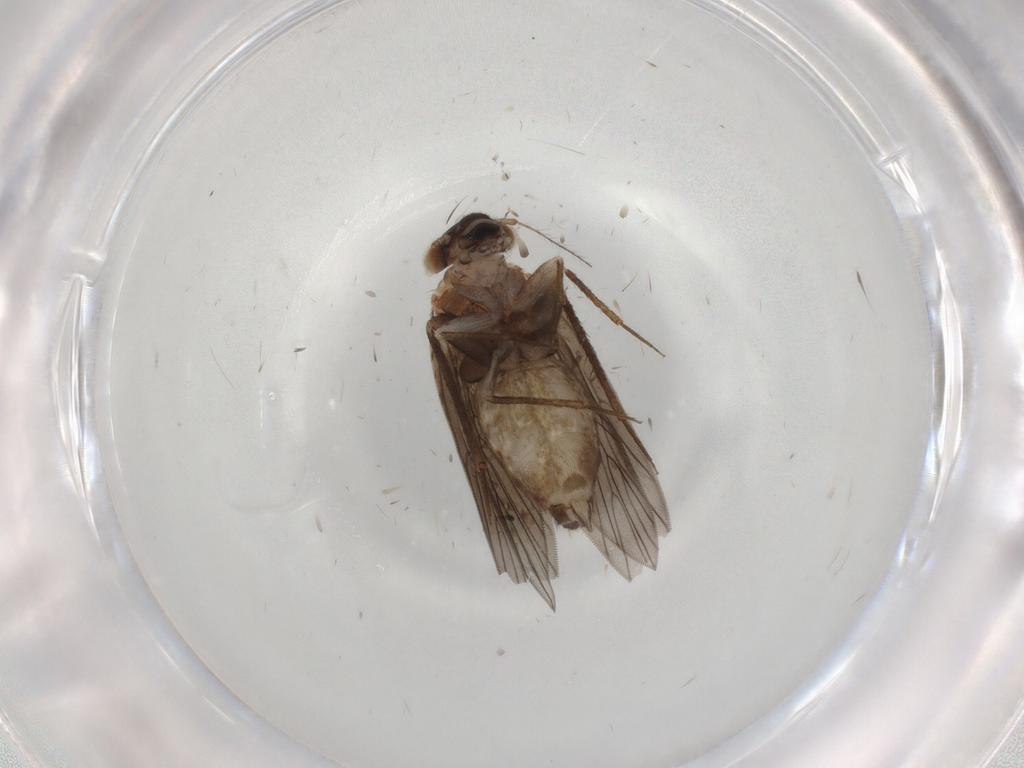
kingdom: Animalia
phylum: Arthropoda
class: Insecta
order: Psocodea
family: Lepidopsocidae
